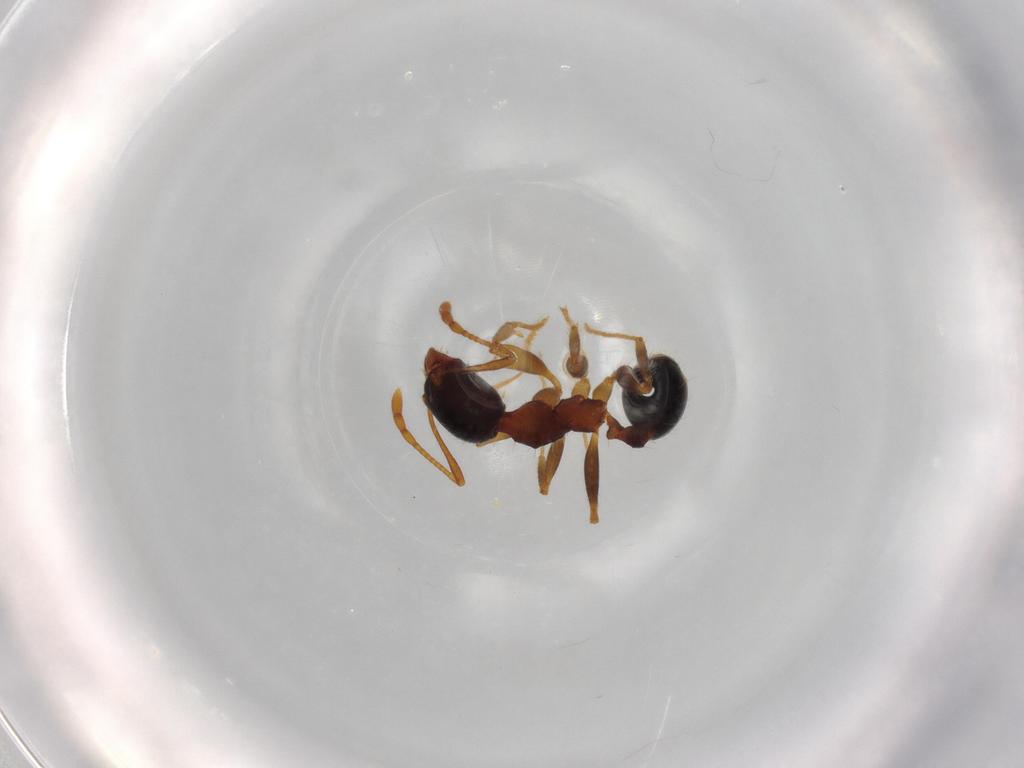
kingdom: Animalia
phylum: Arthropoda
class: Insecta
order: Hymenoptera
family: Formicidae
